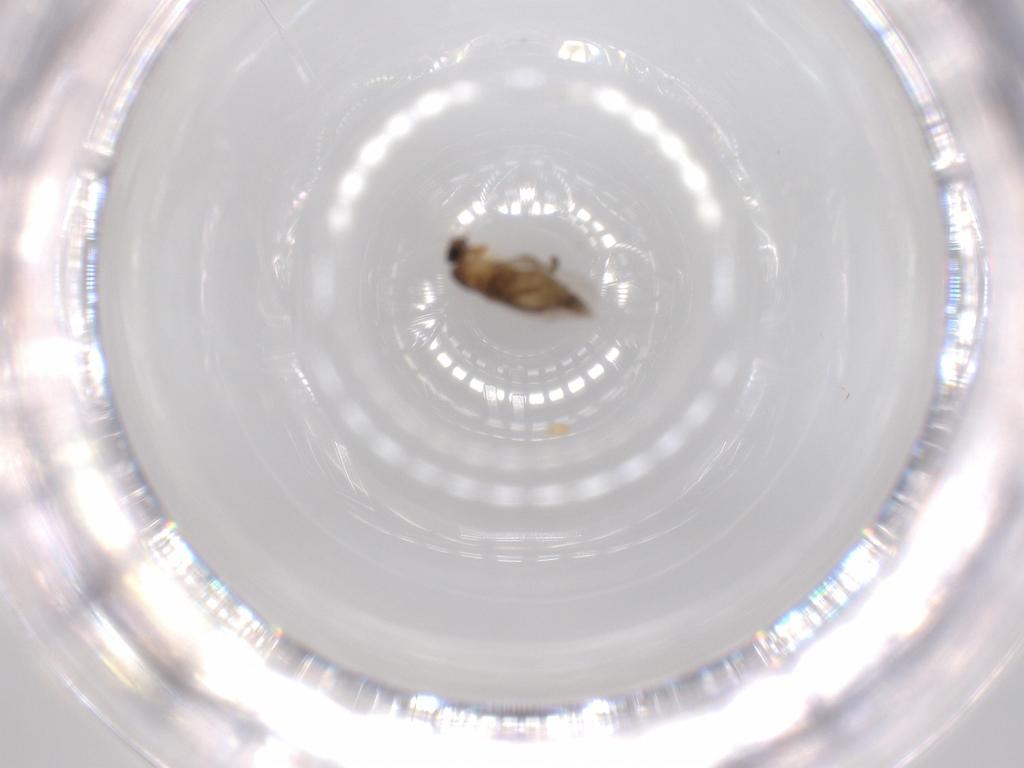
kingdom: Animalia
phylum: Arthropoda
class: Insecta
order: Diptera
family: Phoridae
